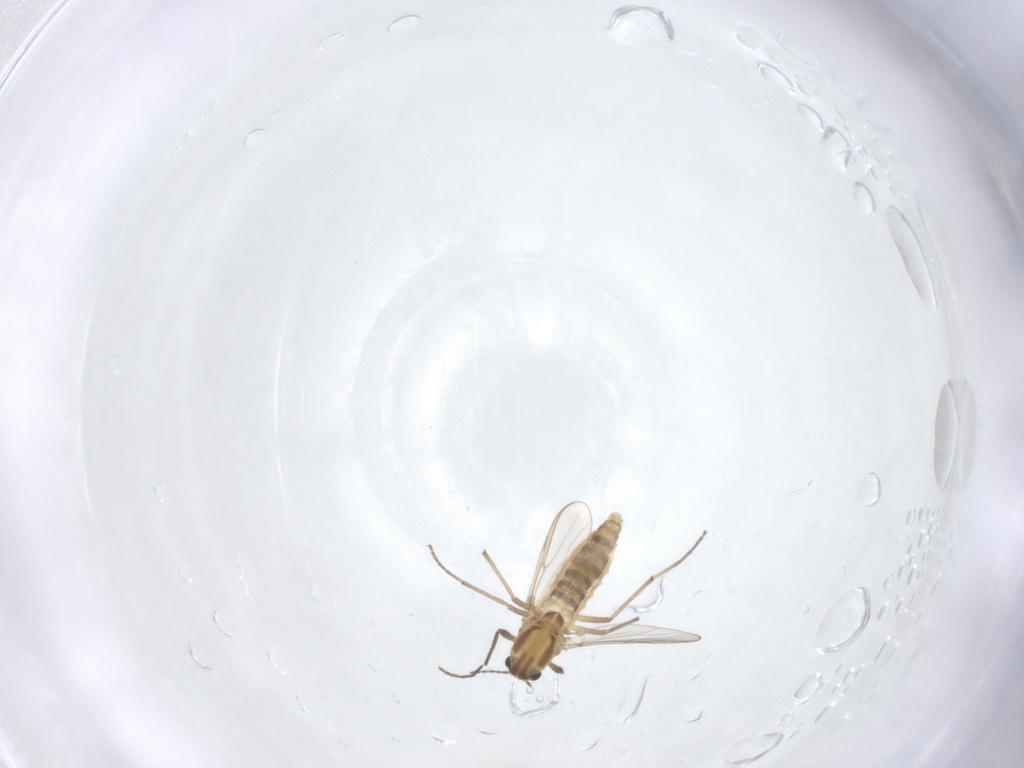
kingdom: Animalia
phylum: Arthropoda
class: Insecta
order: Diptera
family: Chironomidae
